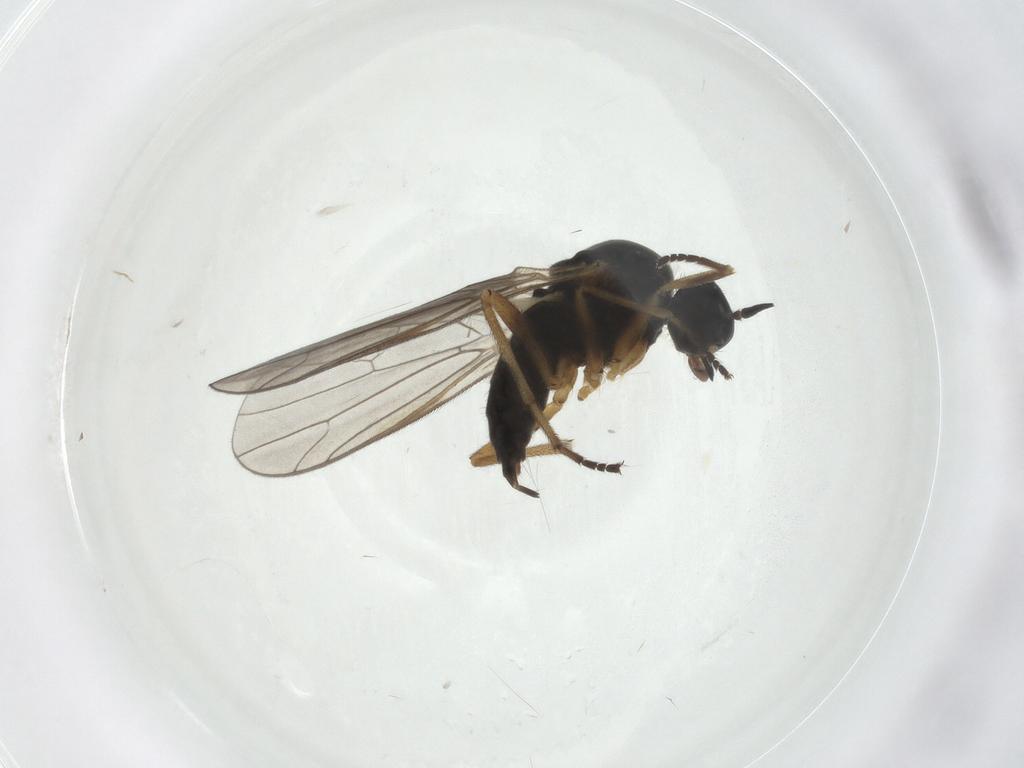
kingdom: Animalia
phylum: Arthropoda
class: Insecta
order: Diptera
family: Empididae
